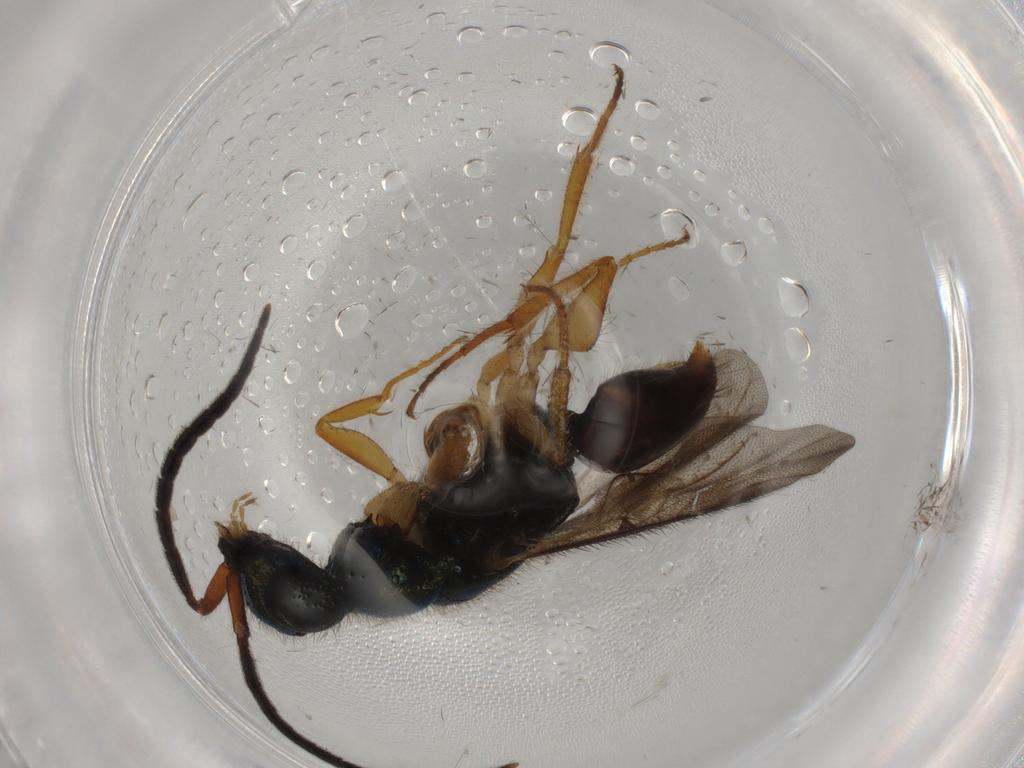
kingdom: Animalia
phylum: Arthropoda
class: Insecta
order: Hymenoptera
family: Chrysididae
